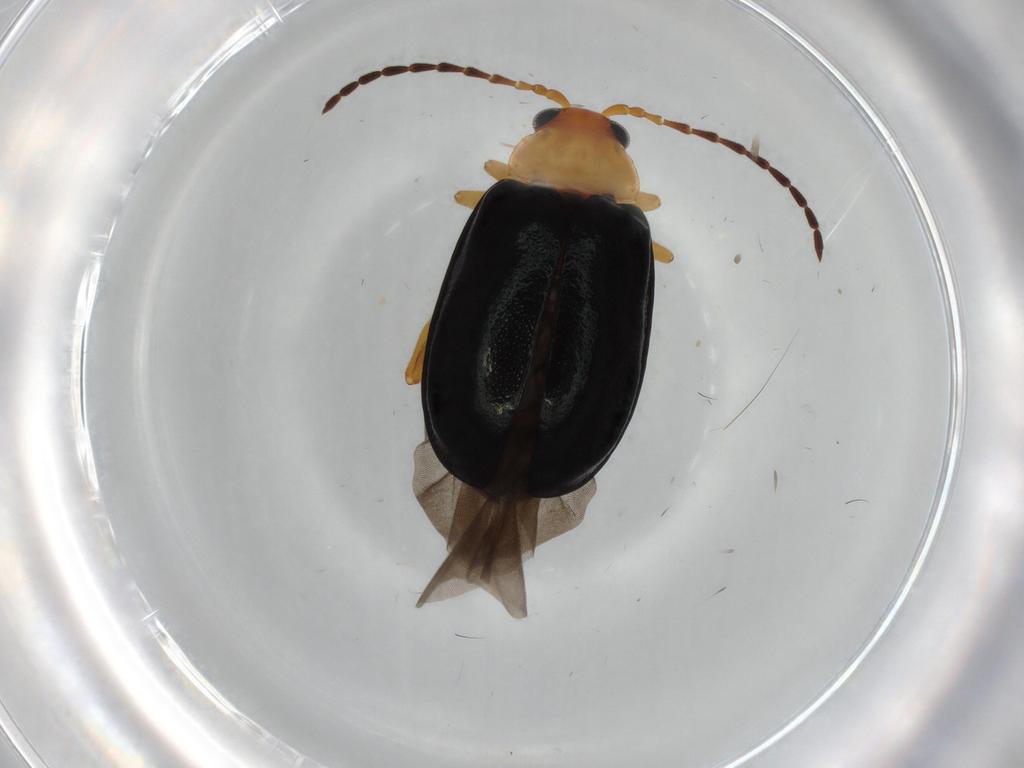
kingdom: Animalia
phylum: Arthropoda
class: Insecta
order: Coleoptera
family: Chrysomelidae
